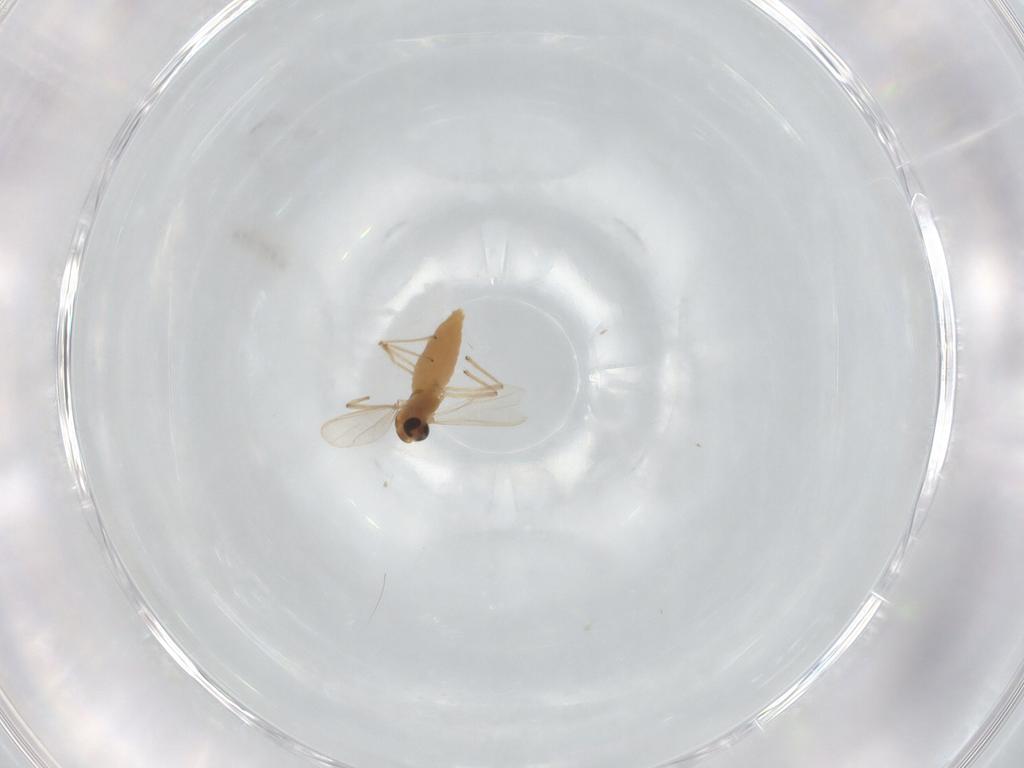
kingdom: Animalia
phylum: Arthropoda
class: Insecta
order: Diptera
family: Chironomidae
